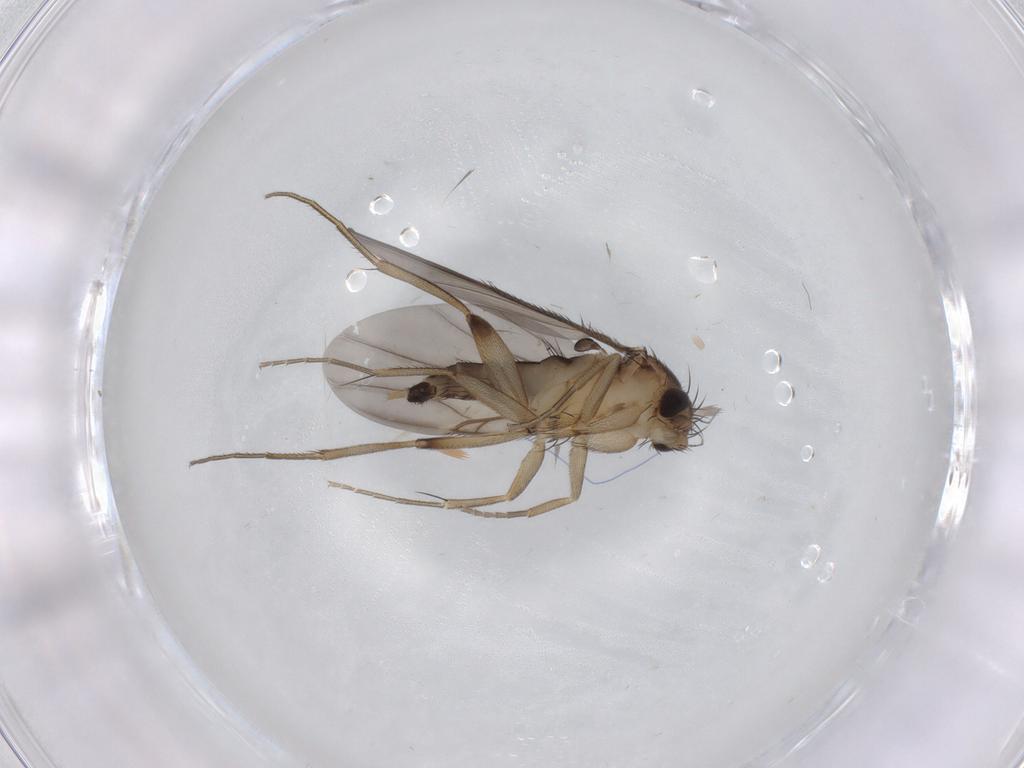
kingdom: Animalia
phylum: Arthropoda
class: Insecta
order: Diptera
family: Phoridae
